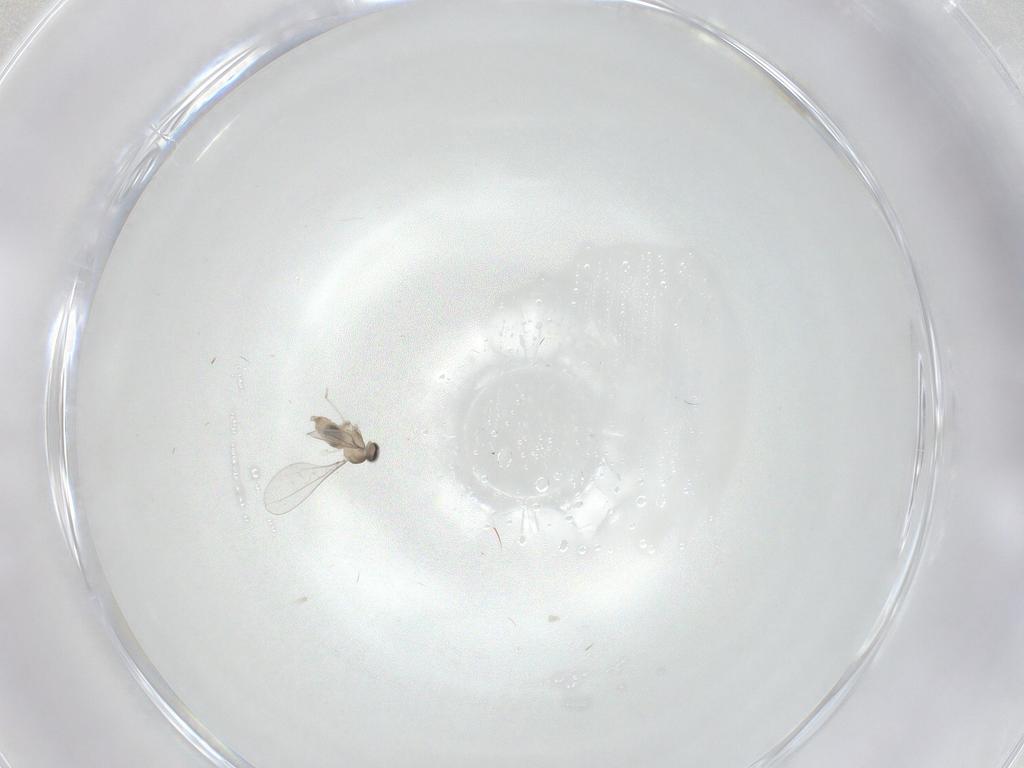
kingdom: Animalia
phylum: Arthropoda
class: Insecta
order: Diptera
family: Cecidomyiidae
